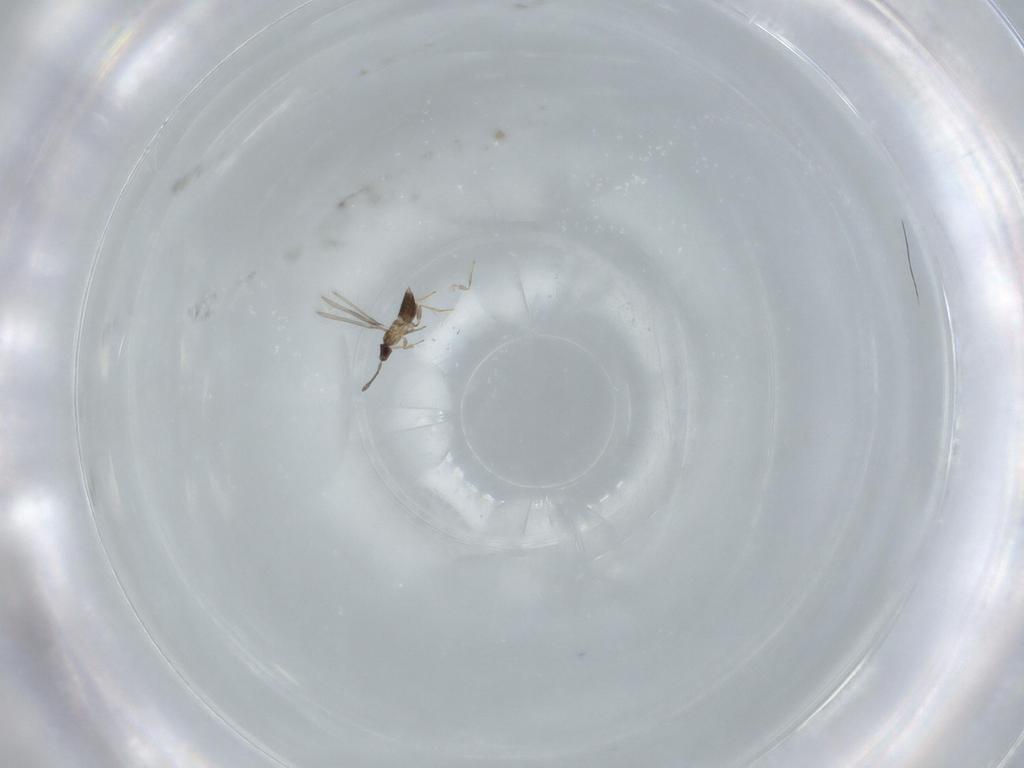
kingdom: Animalia
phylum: Arthropoda
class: Insecta
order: Hymenoptera
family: Mymaridae
